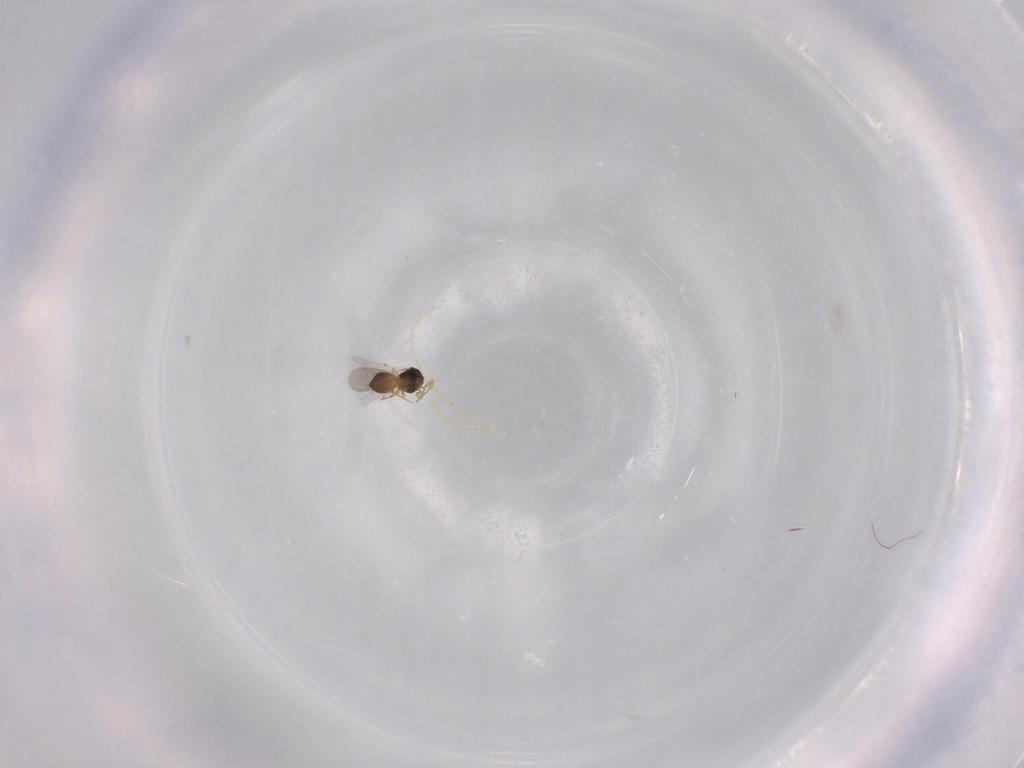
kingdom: Animalia
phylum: Arthropoda
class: Insecta
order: Hymenoptera
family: Scelionidae
